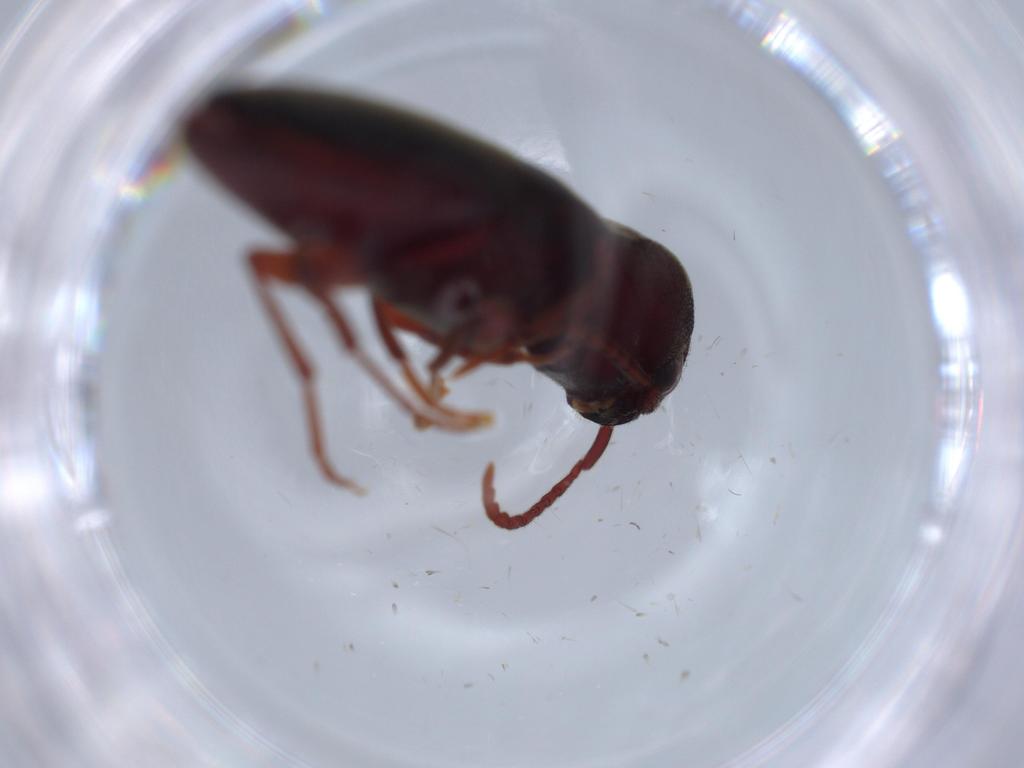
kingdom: Animalia
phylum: Arthropoda
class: Insecta
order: Coleoptera
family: Eucnemidae
